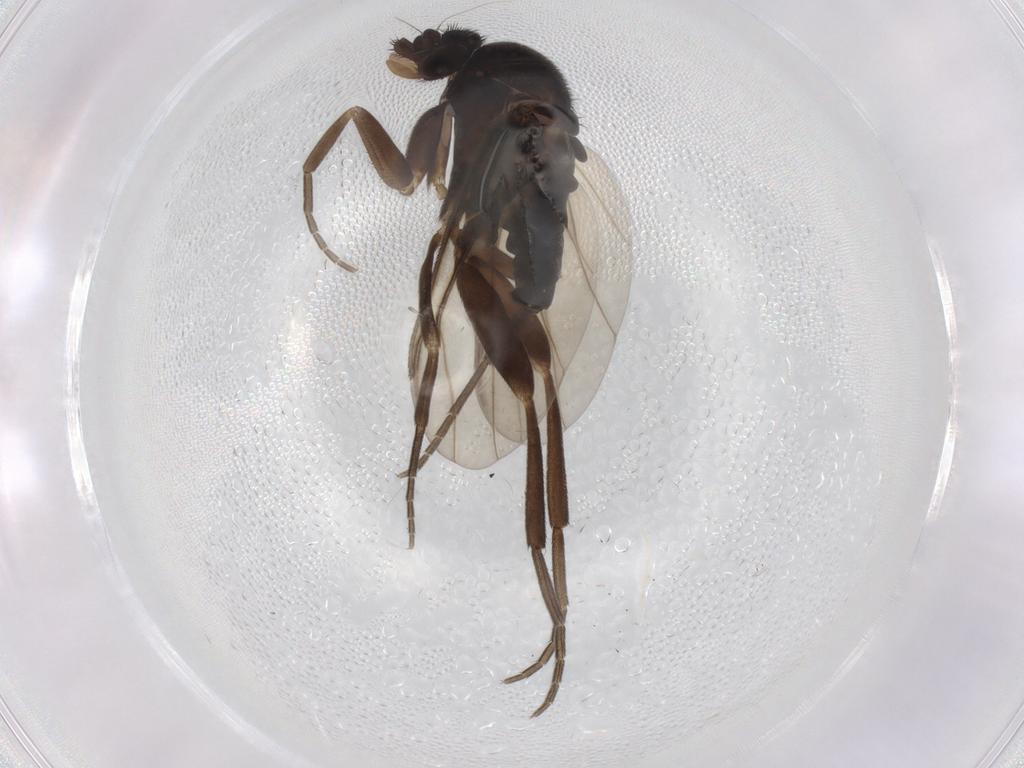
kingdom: Animalia
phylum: Arthropoda
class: Insecta
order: Diptera
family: Phoridae
